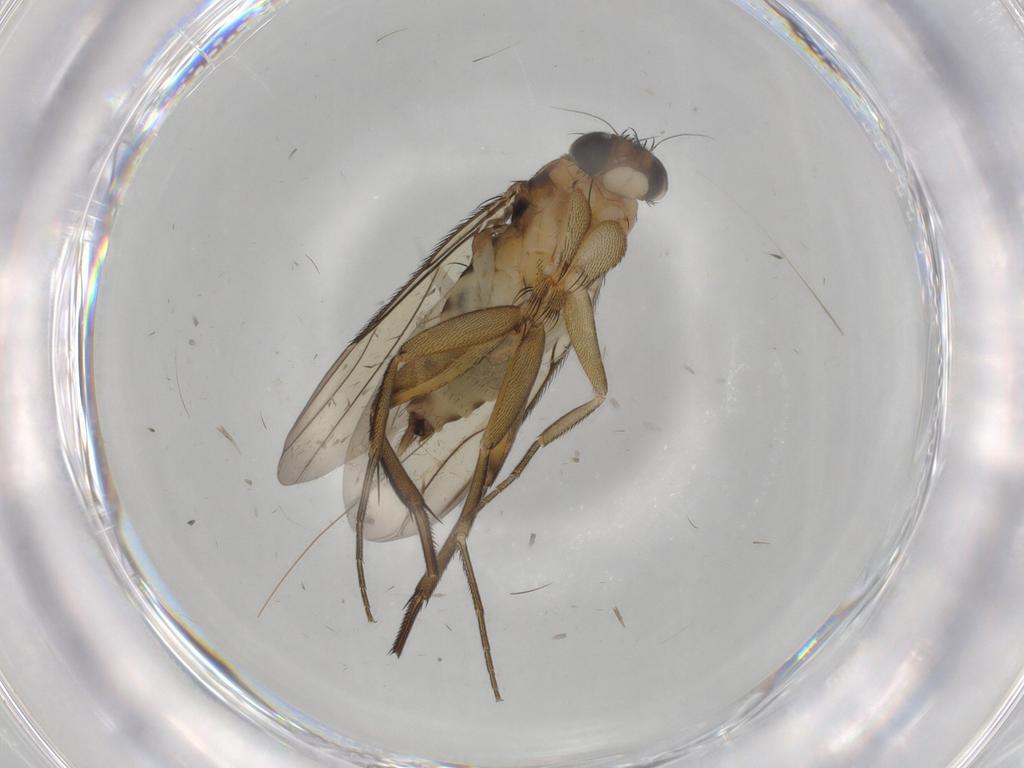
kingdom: Animalia
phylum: Arthropoda
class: Insecta
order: Diptera
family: Phoridae
